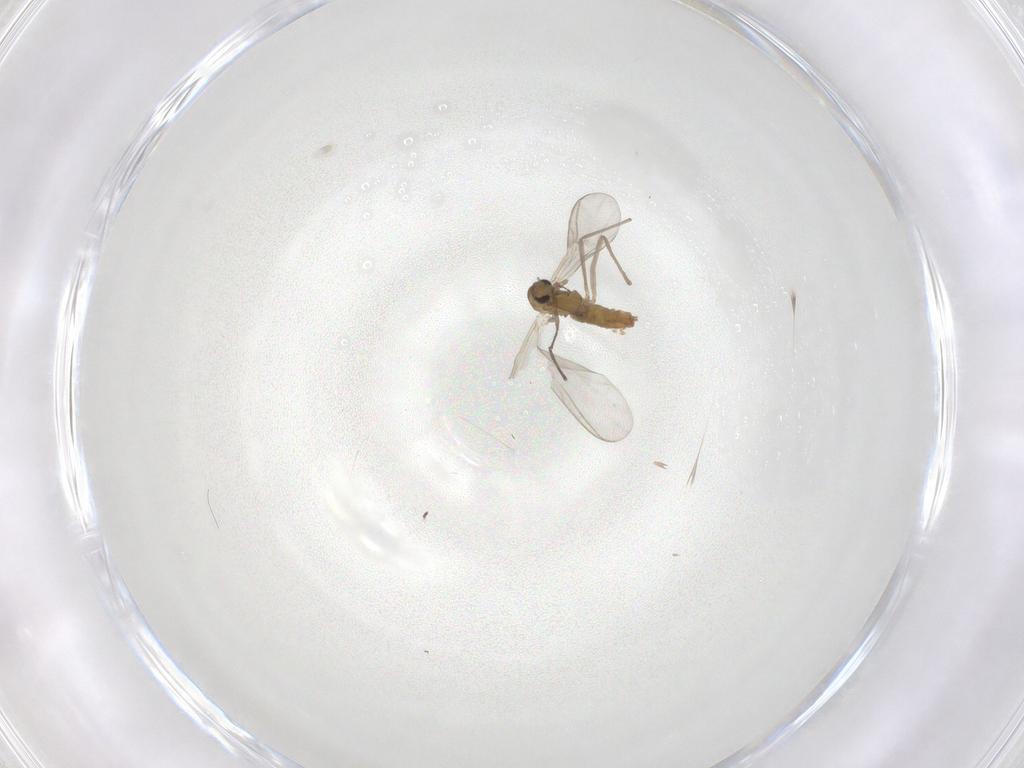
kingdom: Animalia
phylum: Arthropoda
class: Insecta
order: Diptera
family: Chironomidae
